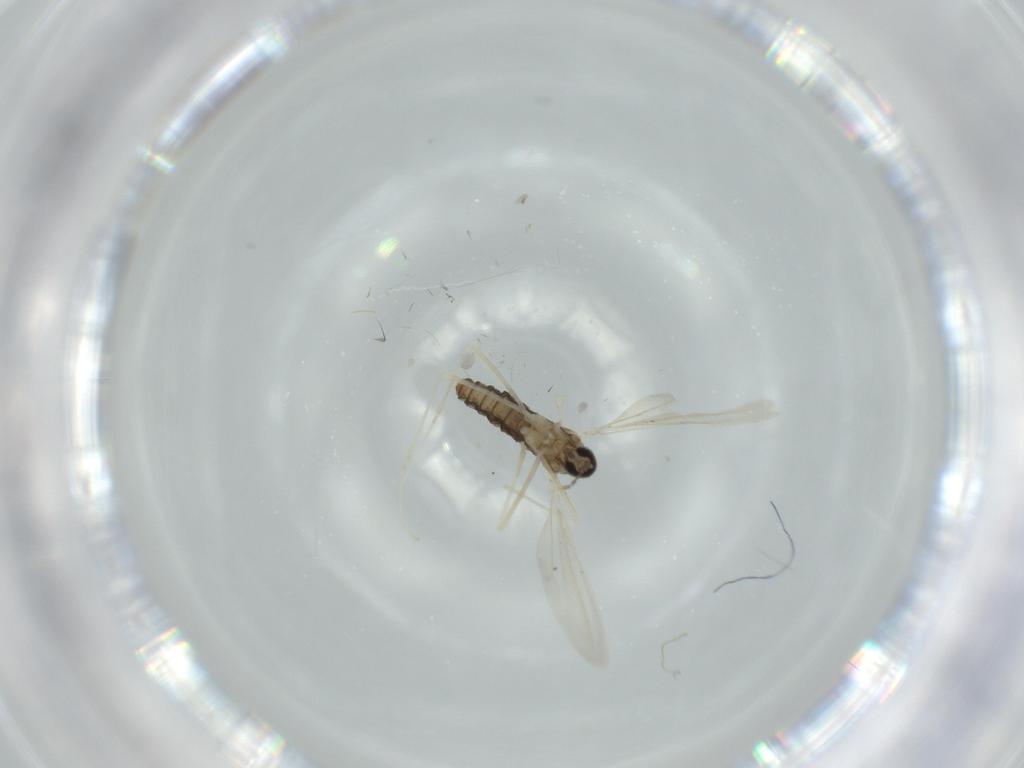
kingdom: Animalia
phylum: Arthropoda
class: Insecta
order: Diptera
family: Cecidomyiidae
